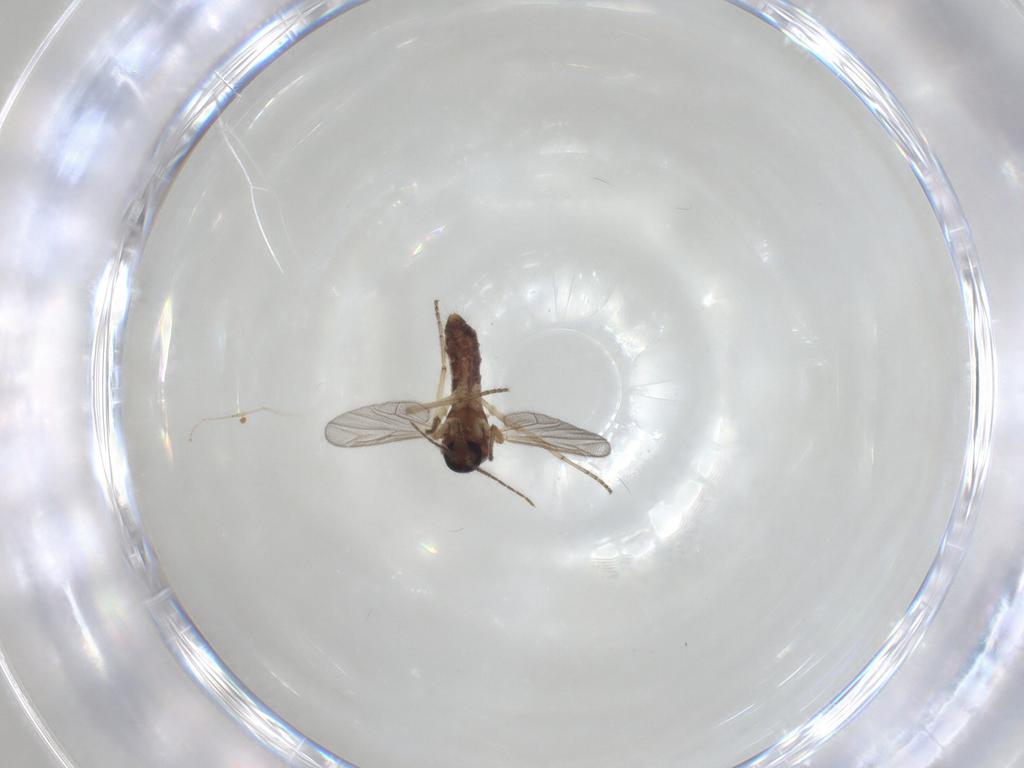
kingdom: Animalia
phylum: Arthropoda
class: Insecta
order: Diptera
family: Ceratopogonidae
